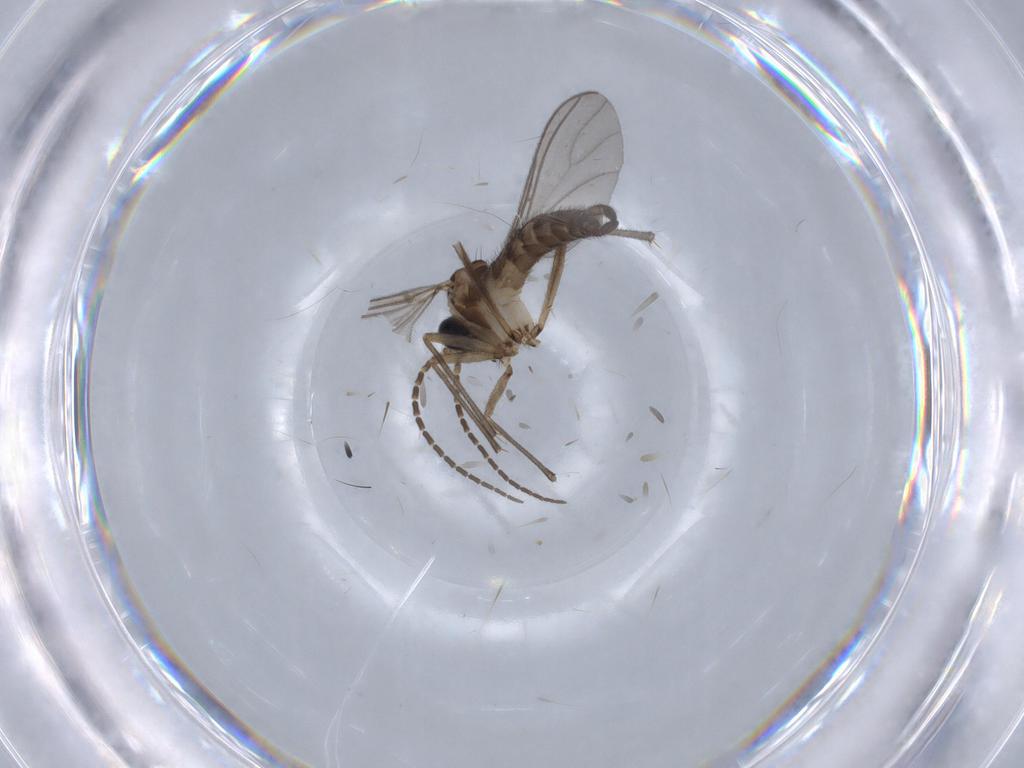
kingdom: Animalia
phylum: Arthropoda
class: Insecta
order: Diptera
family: Sciaridae
